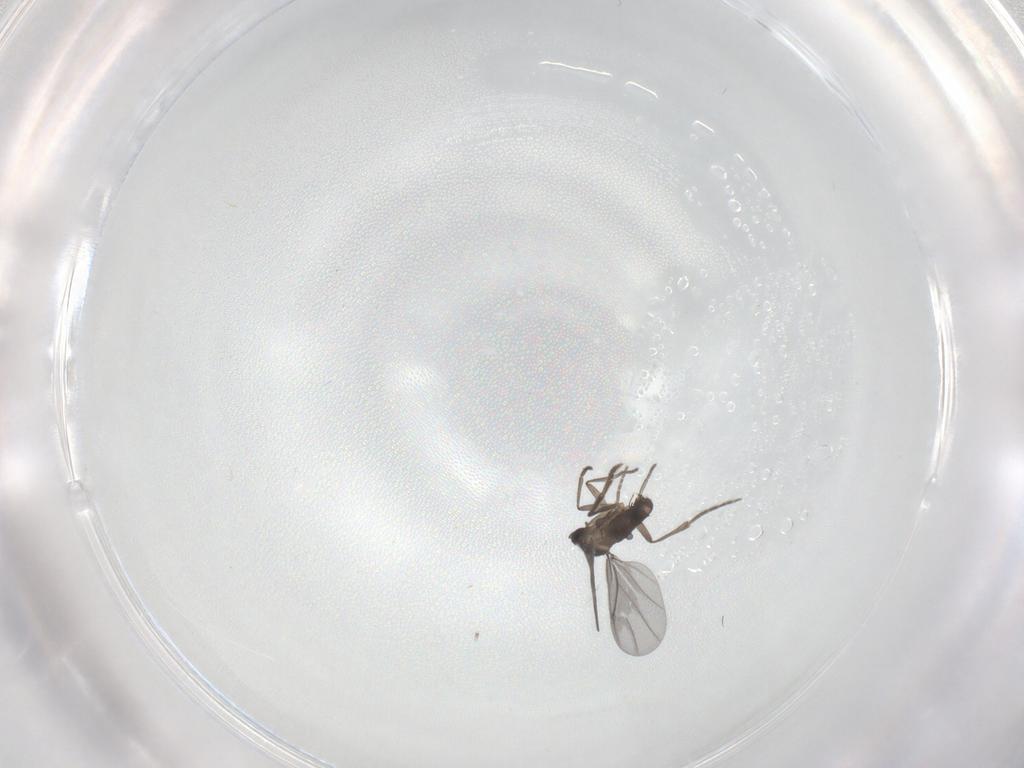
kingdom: Animalia
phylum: Arthropoda
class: Insecta
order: Diptera
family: Phoridae
